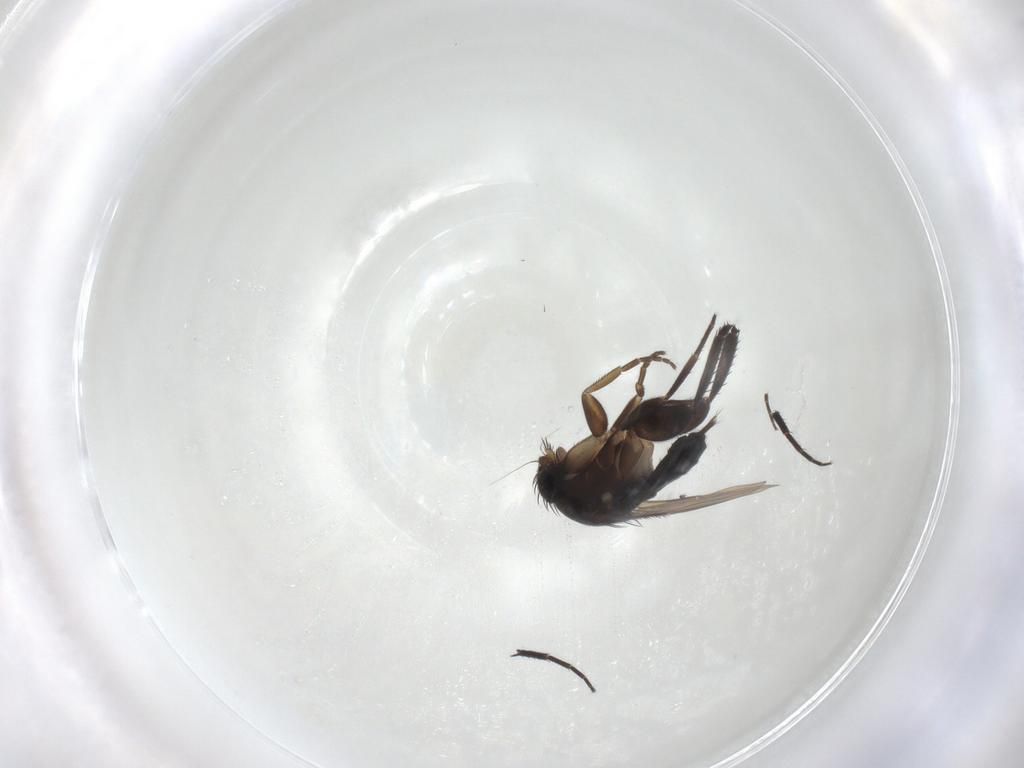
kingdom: Animalia
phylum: Arthropoda
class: Insecta
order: Diptera
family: Phoridae
